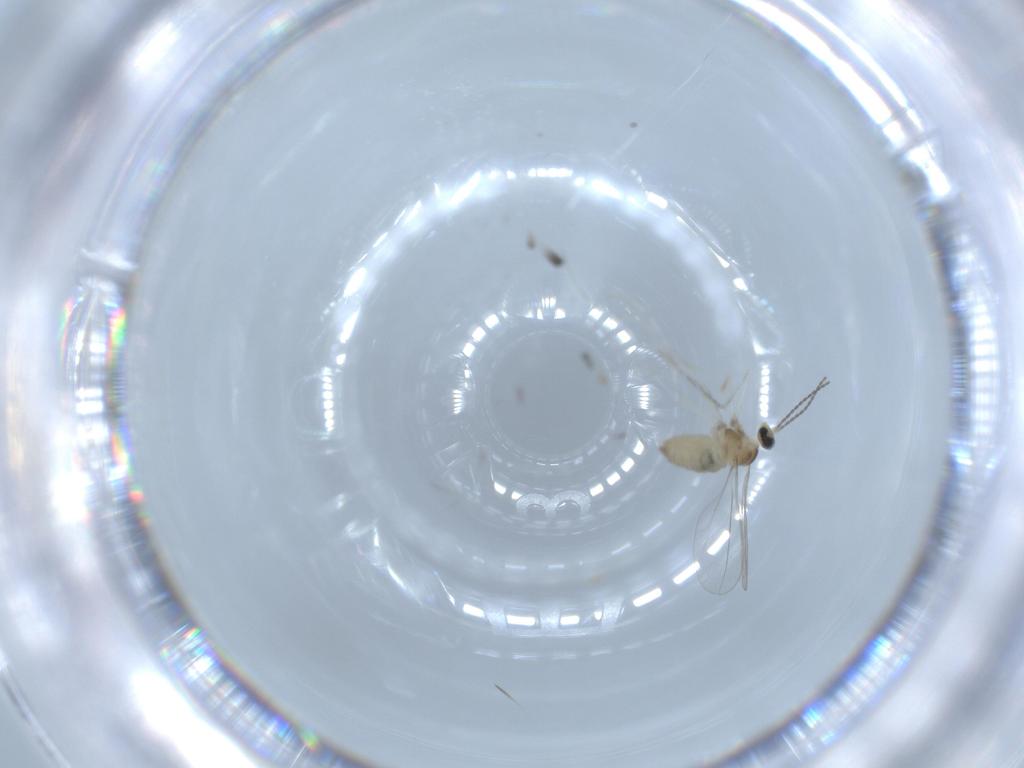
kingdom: Animalia
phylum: Arthropoda
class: Insecta
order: Diptera
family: Cecidomyiidae
